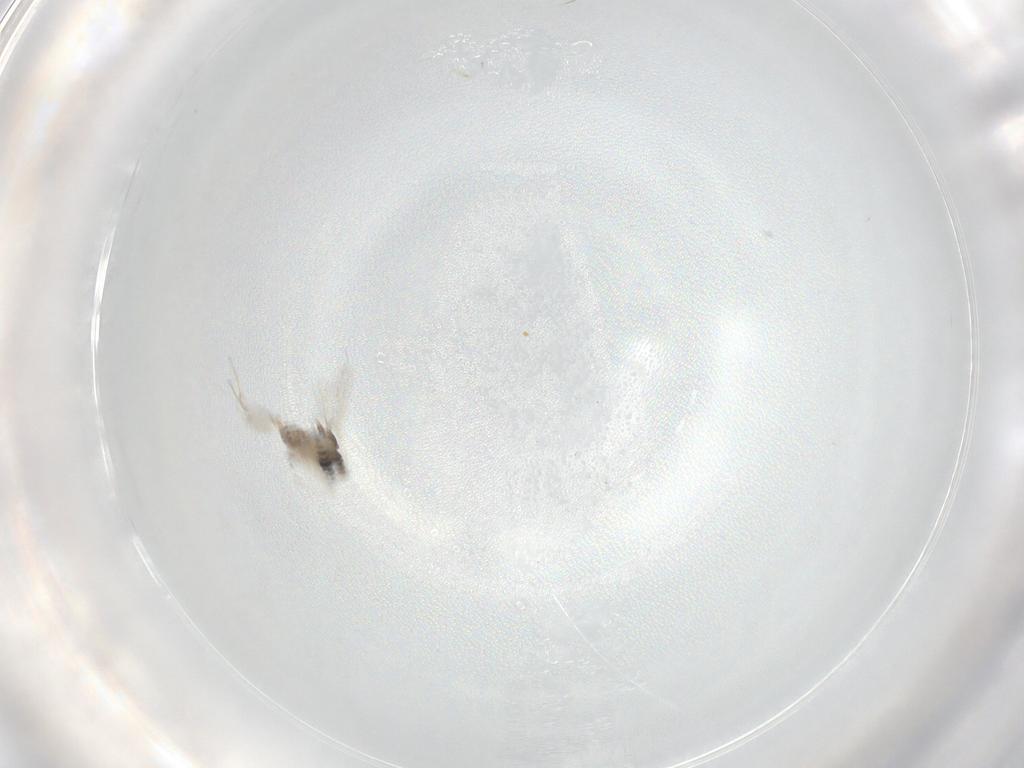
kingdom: Animalia
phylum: Arthropoda
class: Insecta
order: Diptera
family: Cecidomyiidae
